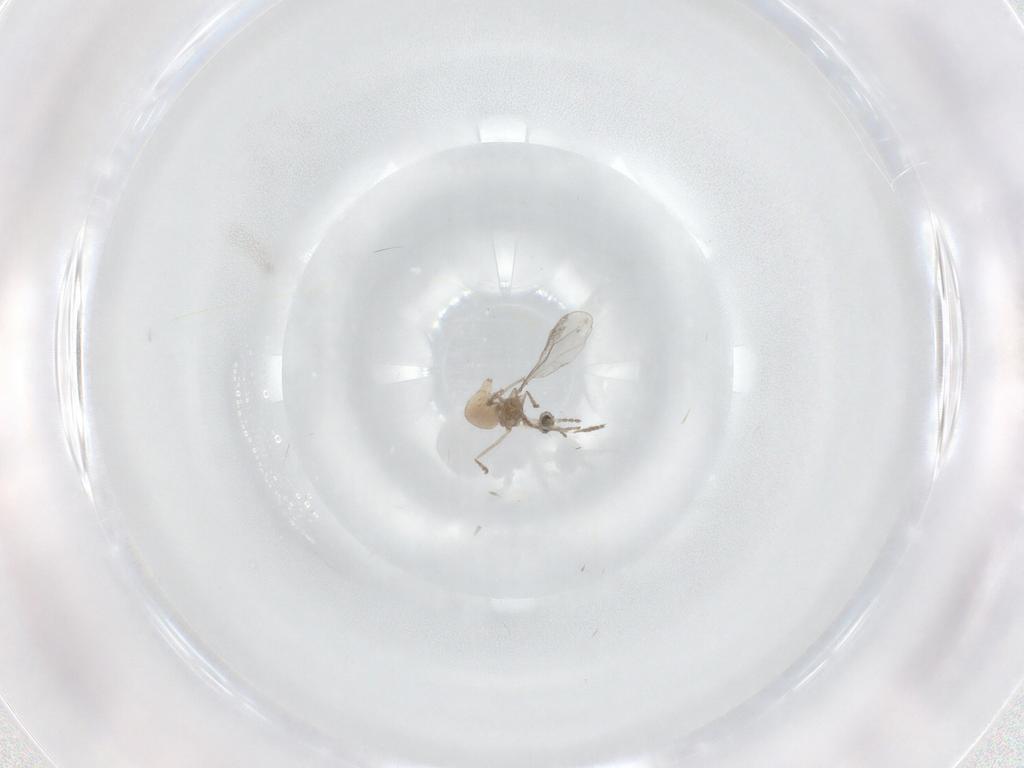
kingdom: Animalia
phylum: Arthropoda
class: Insecta
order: Diptera
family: Psychodidae
